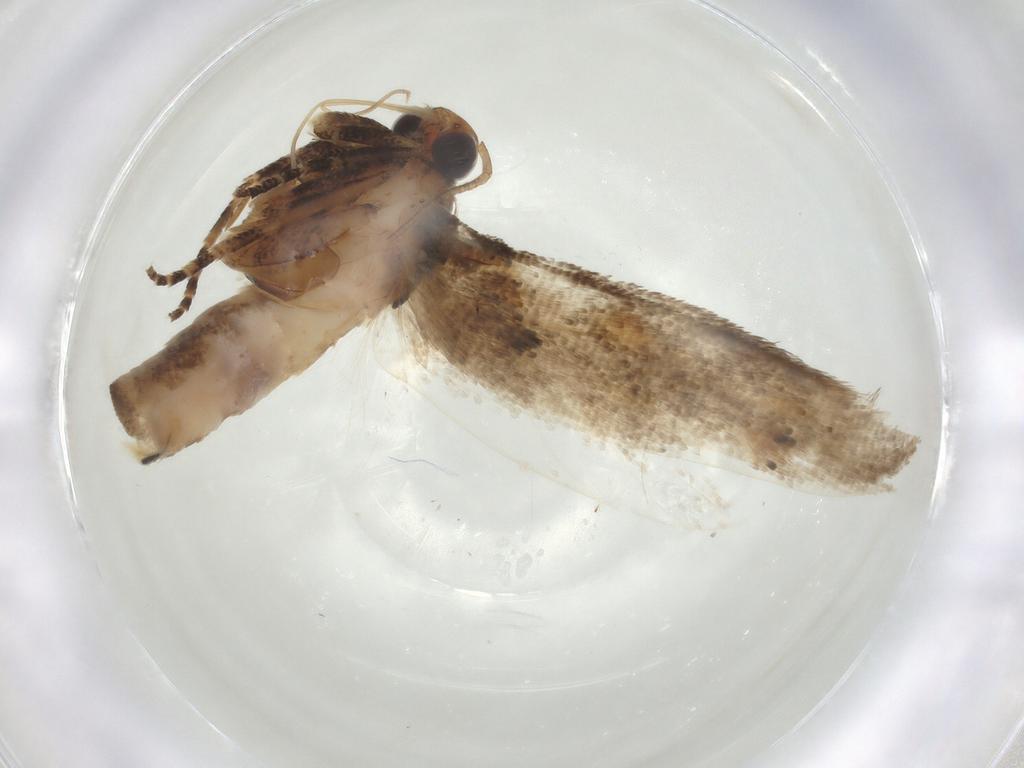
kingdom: Animalia
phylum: Arthropoda
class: Insecta
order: Lepidoptera
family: Gelechiidae
